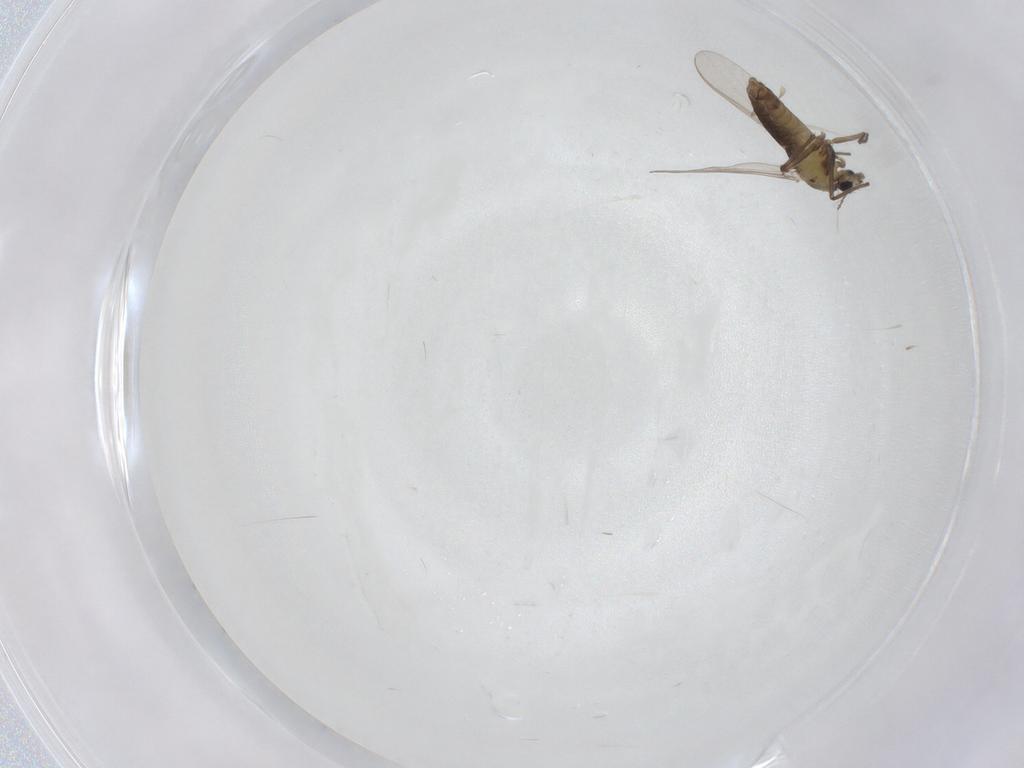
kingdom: Animalia
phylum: Arthropoda
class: Insecta
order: Diptera
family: Chironomidae
